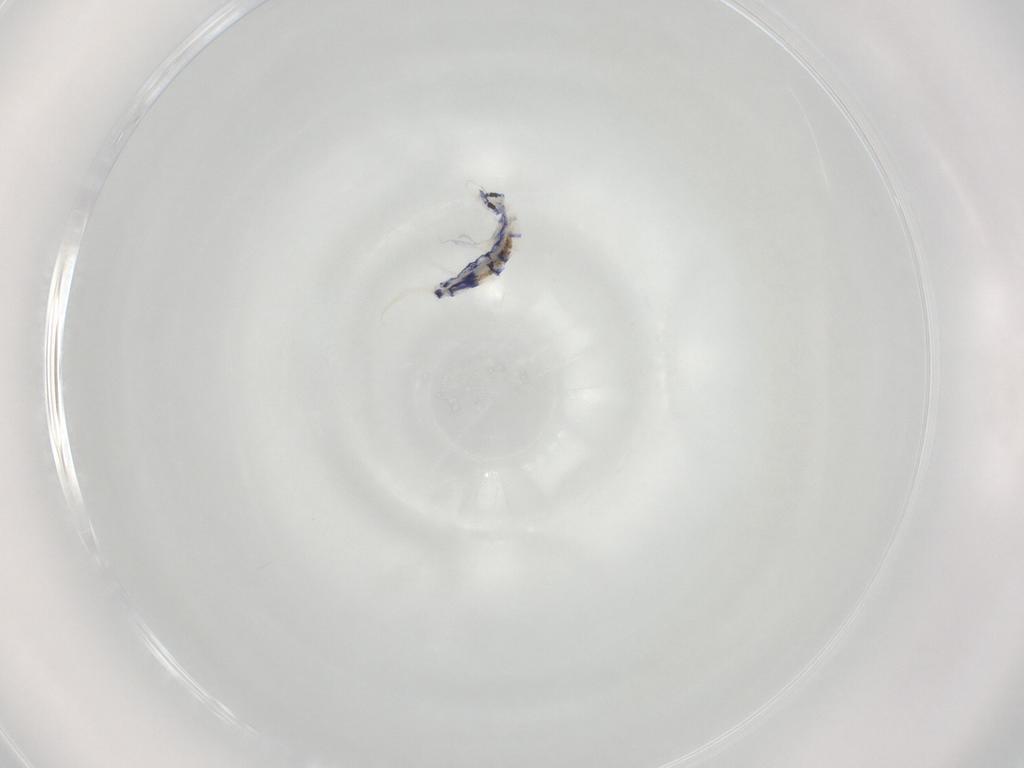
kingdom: Animalia
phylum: Arthropoda
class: Collembola
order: Entomobryomorpha
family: Entomobryidae
